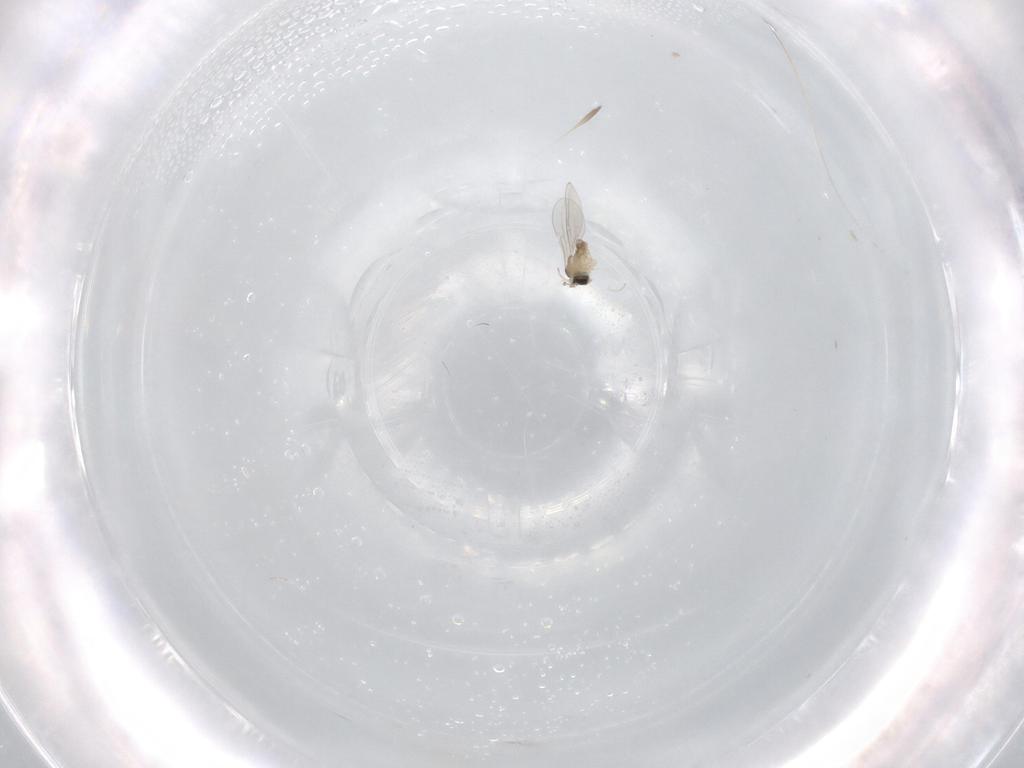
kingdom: Animalia
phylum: Arthropoda
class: Insecta
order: Diptera
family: Cecidomyiidae
